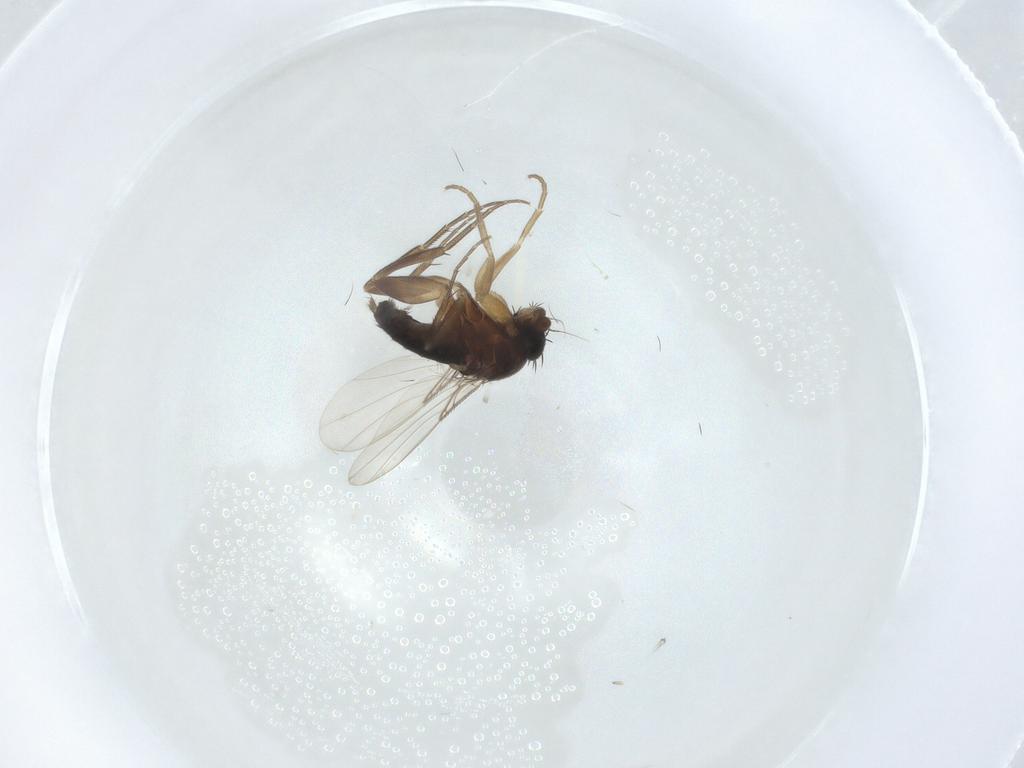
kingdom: Animalia
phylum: Arthropoda
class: Insecta
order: Diptera
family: Phoridae
